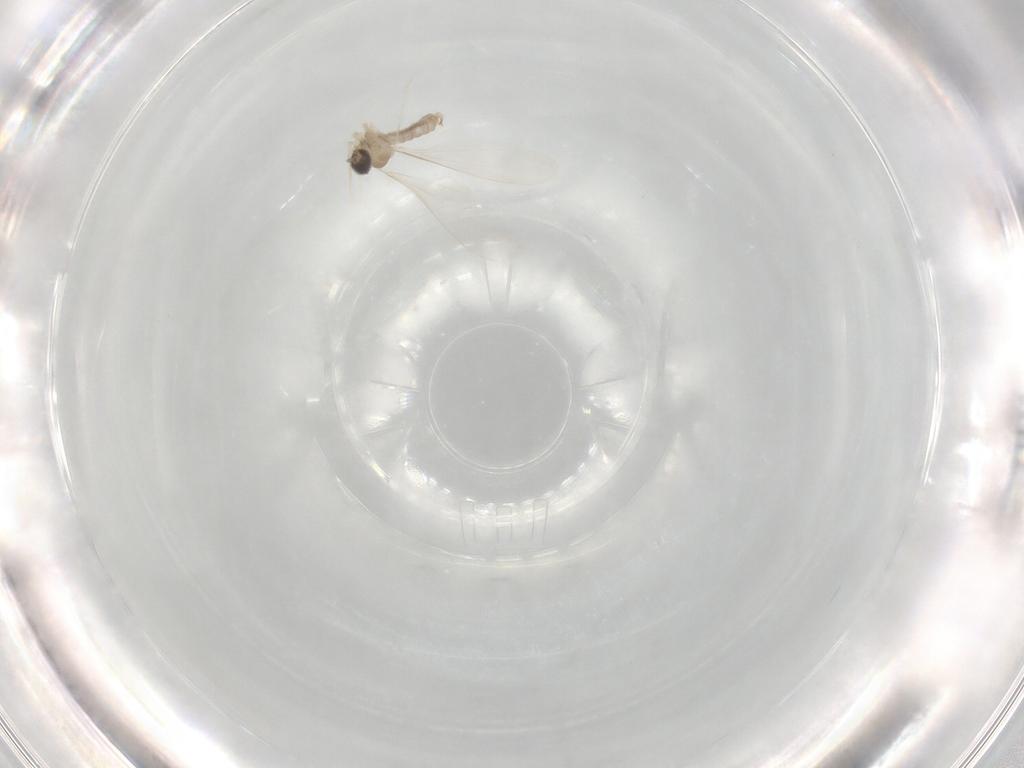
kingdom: Animalia
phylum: Arthropoda
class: Insecta
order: Diptera
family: Cecidomyiidae
